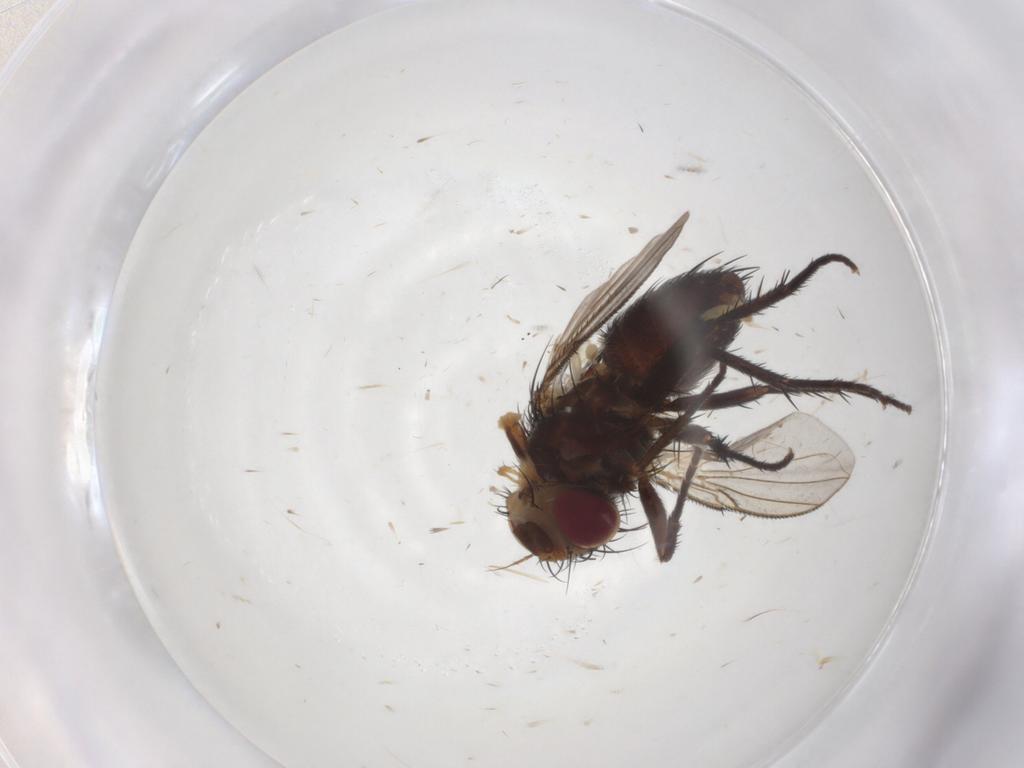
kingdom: Animalia
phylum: Arthropoda
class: Insecta
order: Diptera
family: Tachinidae
